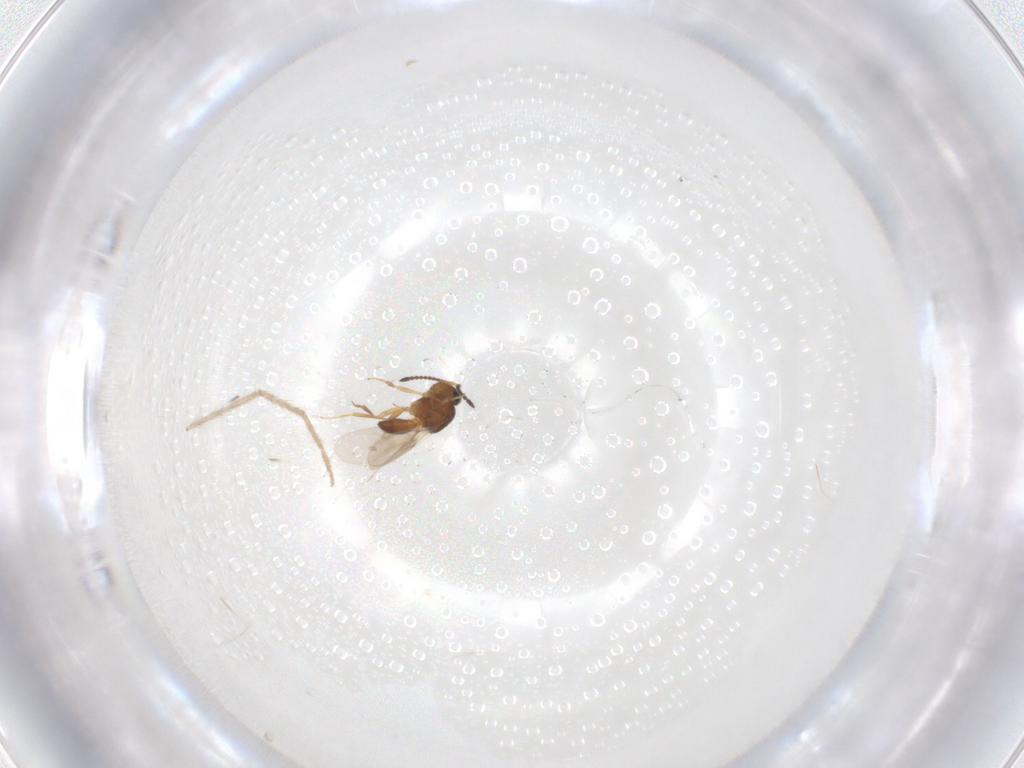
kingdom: Animalia
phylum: Arthropoda
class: Insecta
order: Hymenoptera
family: Scelionidae
